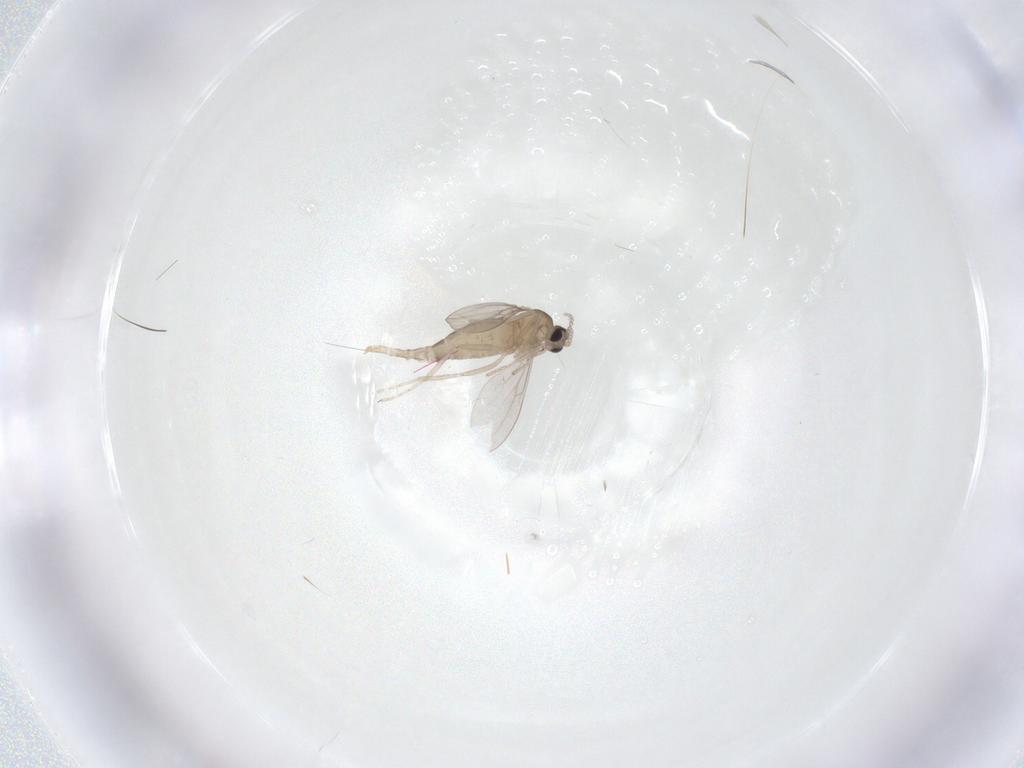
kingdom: Animalia
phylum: Arthropoda
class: Insecta
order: Diptera
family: Cecidomyiidae
